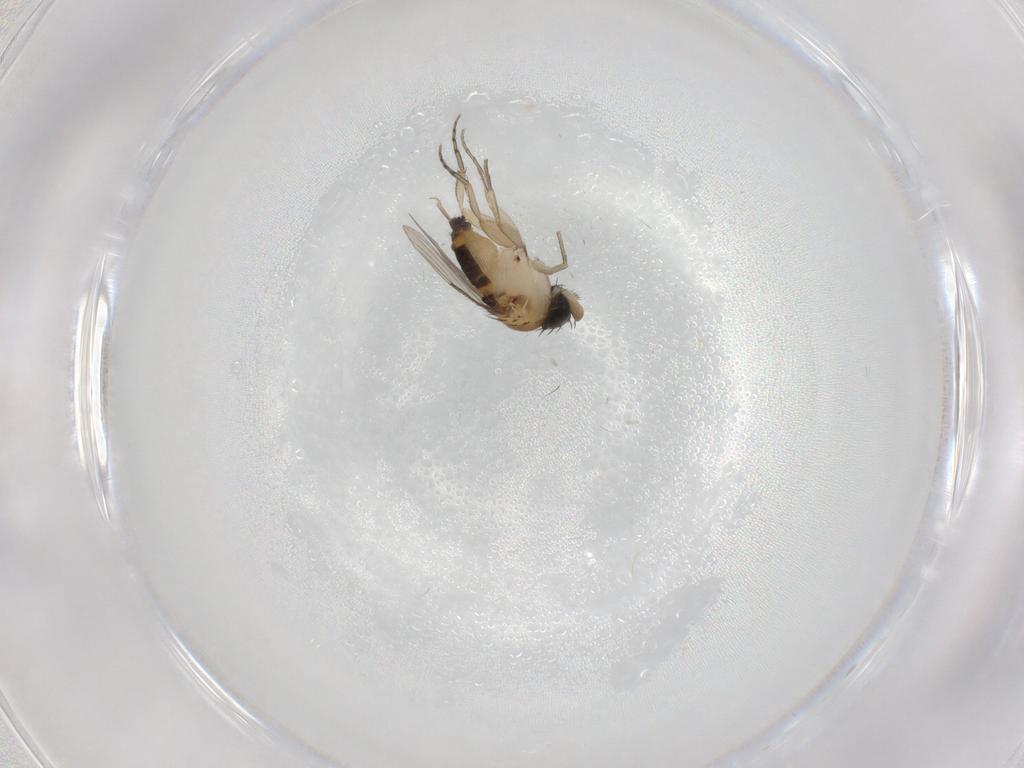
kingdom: Animalia
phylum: Arthropoda
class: Insecta
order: Diptera
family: Phoridae
